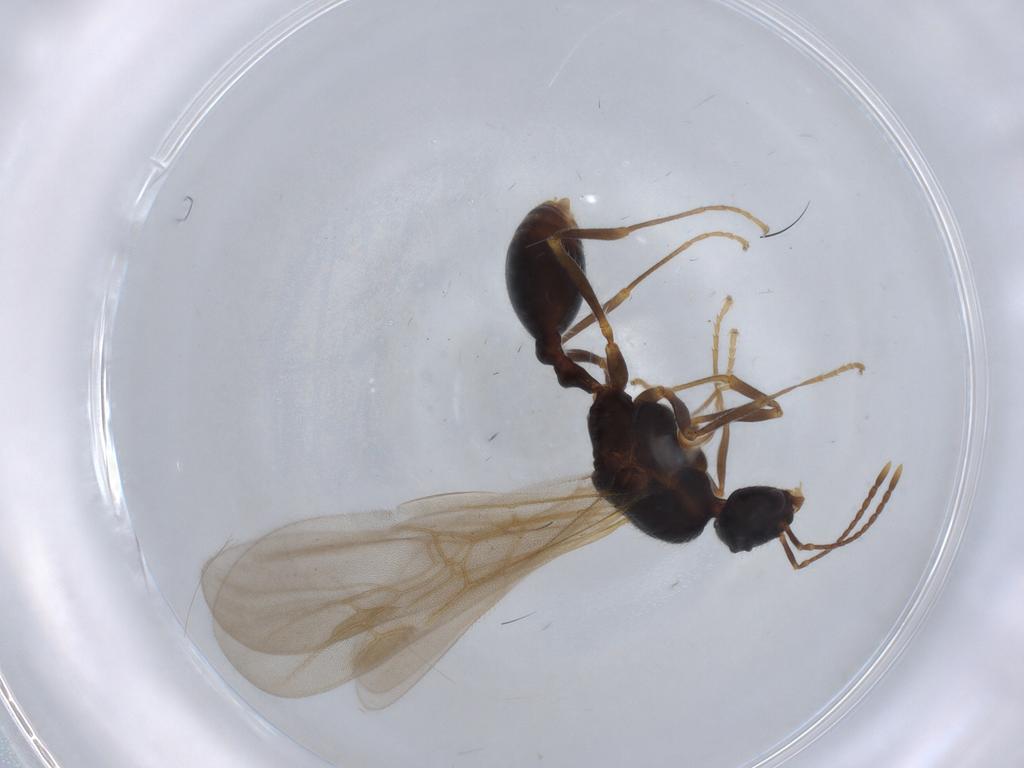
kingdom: Animalia
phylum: Arthropoda
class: Insecta
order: Hymenoptera
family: Formicidae
